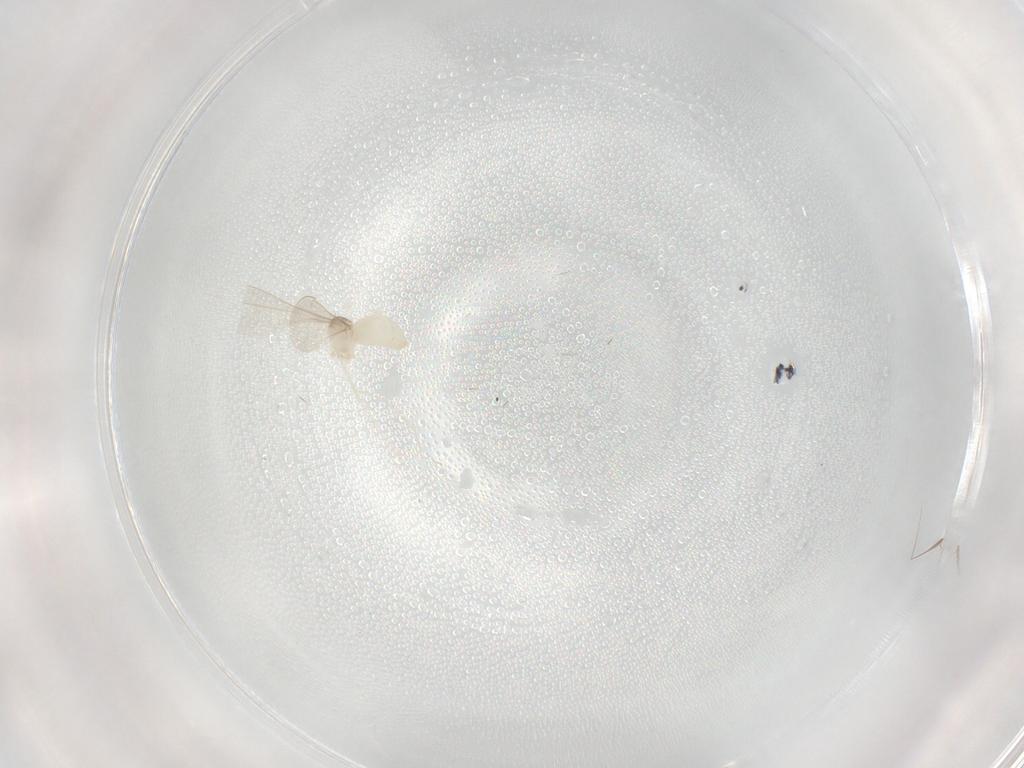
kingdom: Animalia
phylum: Arthropoda
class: Insecta
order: Diptera
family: Cecidomyiidae
